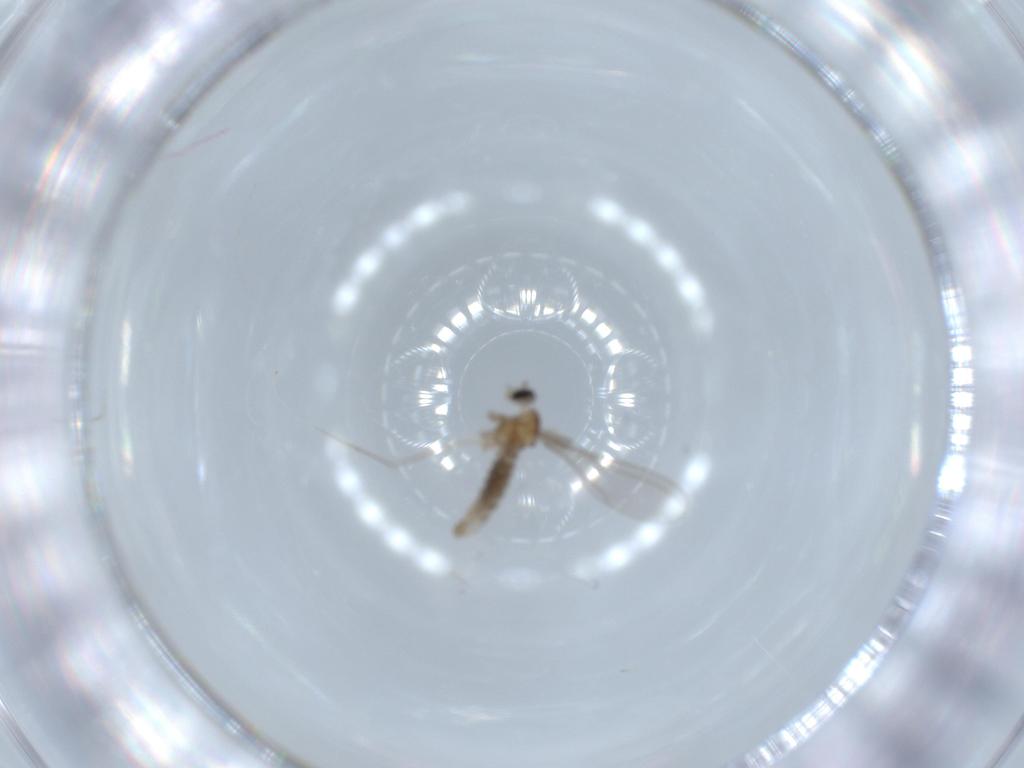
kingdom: Animalia
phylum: Arthropoda
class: Insecta
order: Diptera
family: Cecidomyiidae
